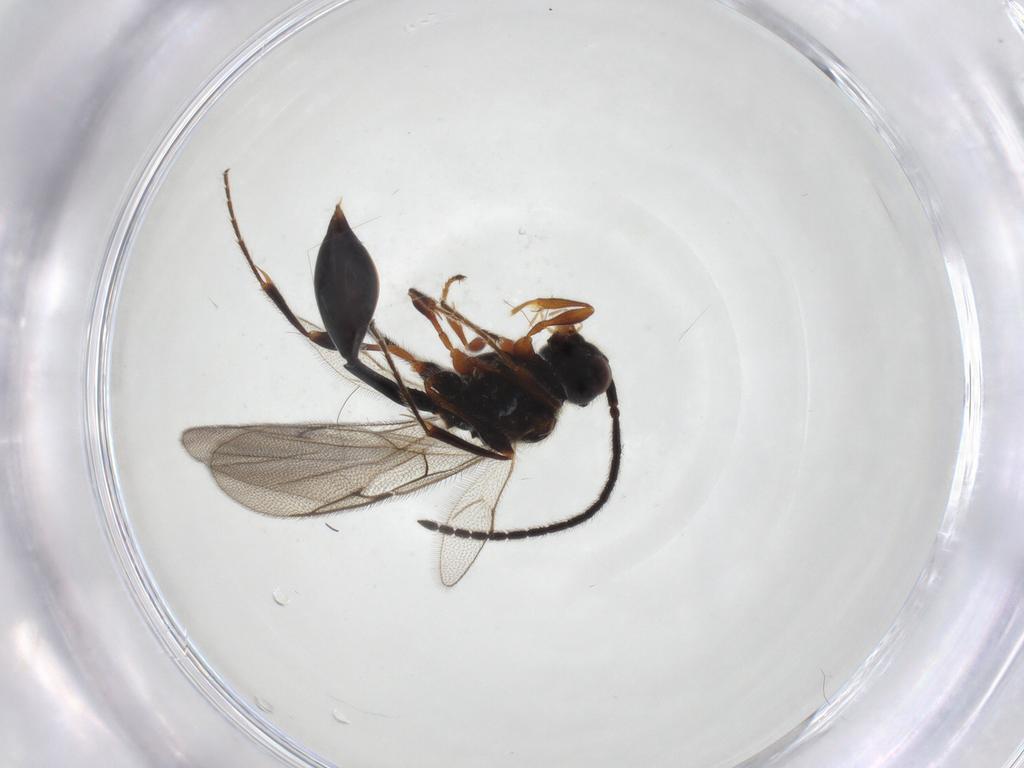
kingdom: Animalia
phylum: Arthropoda
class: Insecta
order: Hymenoptera
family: Diapriidae
